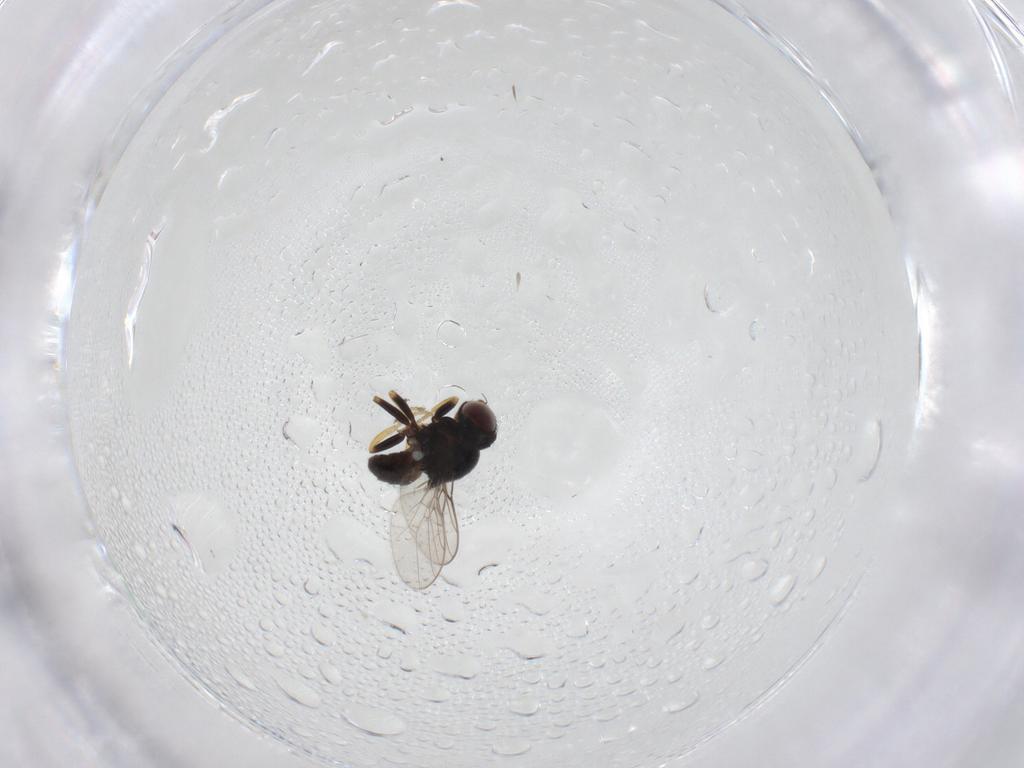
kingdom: Animalia
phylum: Arthropoda
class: Insecta
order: Diptera
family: Chloropidae
